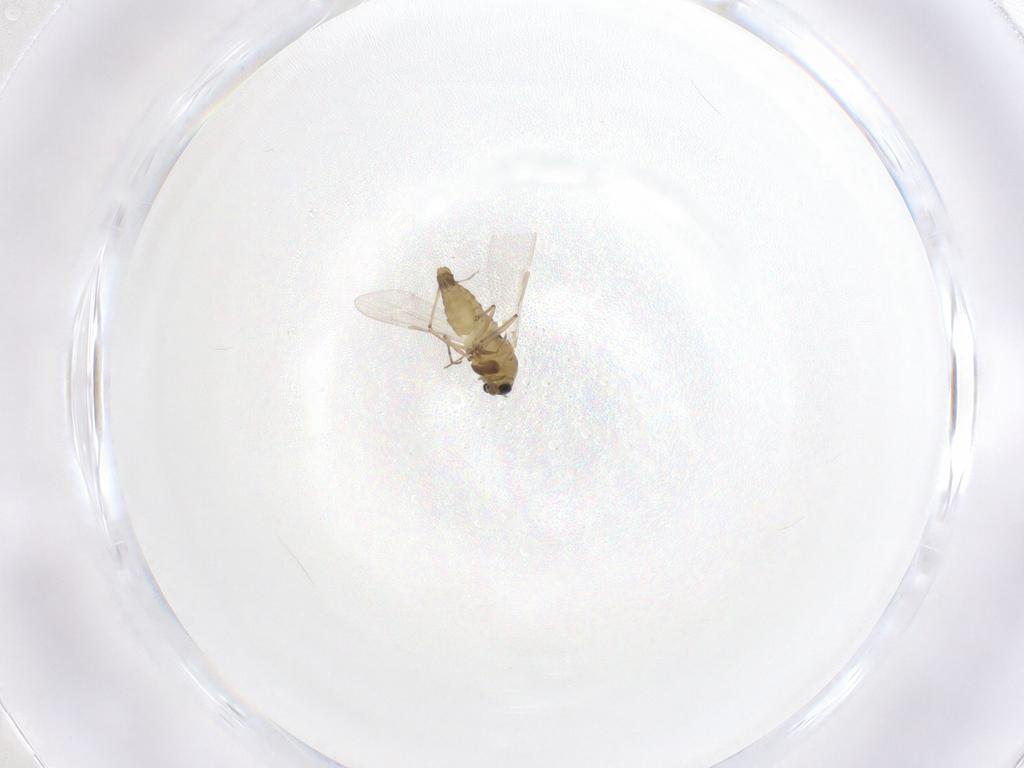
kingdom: Animalia
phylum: Arthropoda
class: Insecta
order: Diptera
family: Chironomidae
